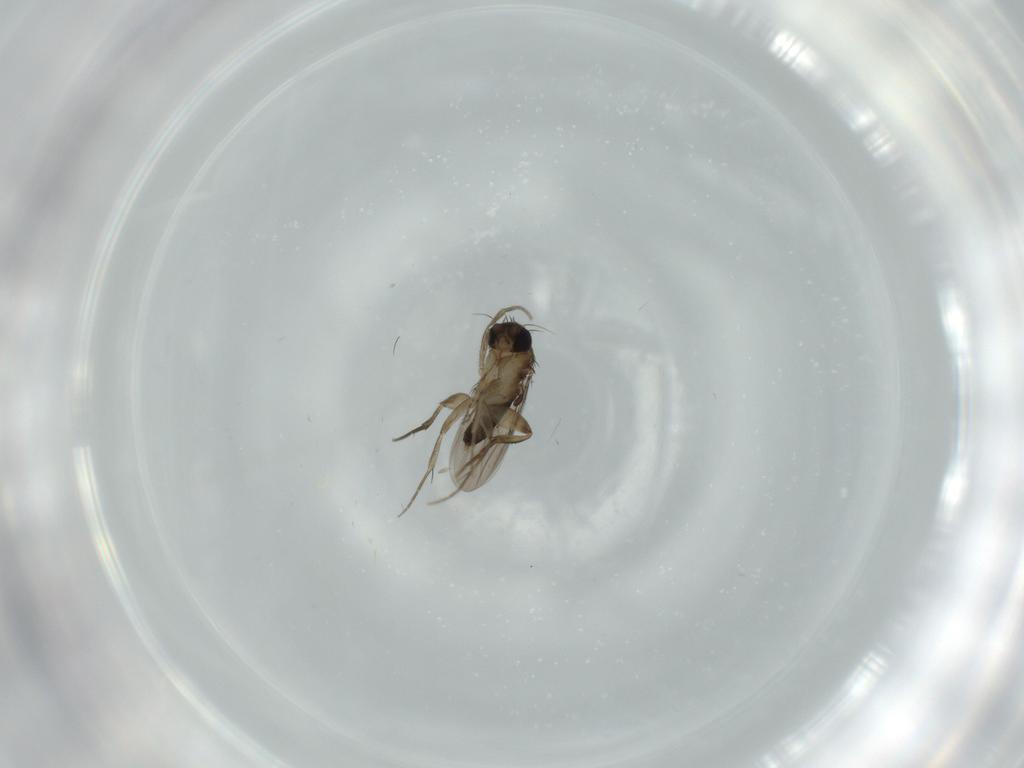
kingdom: Animalia
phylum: Arthropoda
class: Insecta
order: Diptera
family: Phoridae
